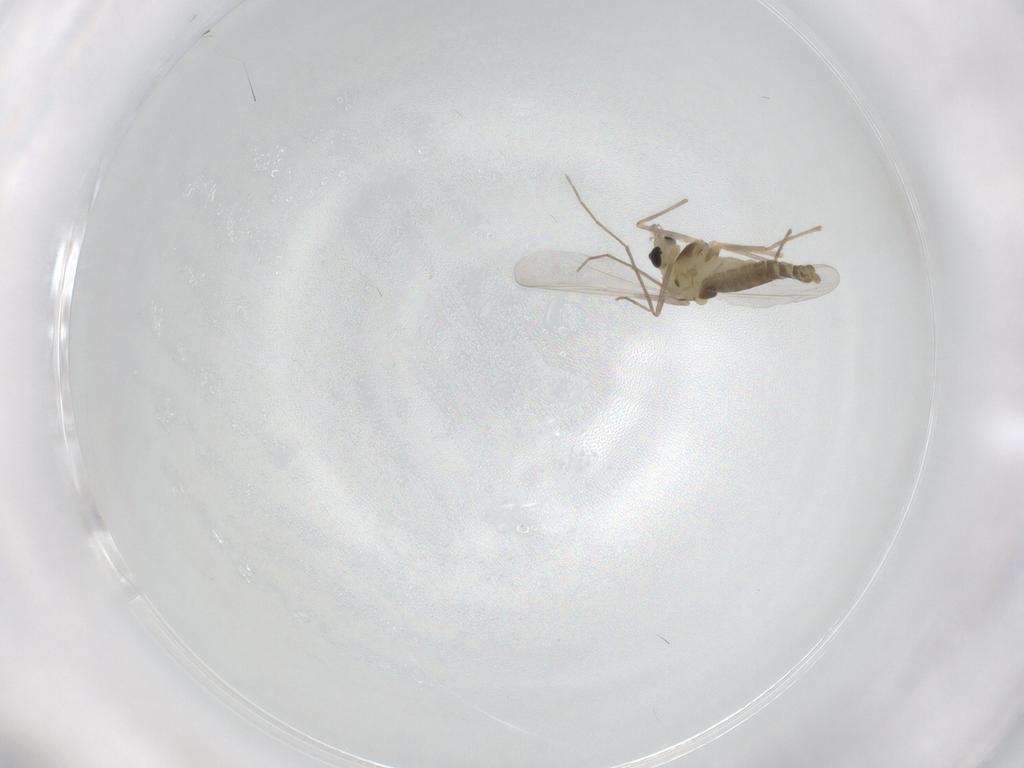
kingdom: Animalia
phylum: Arthropoda
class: Insecta
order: Diptera
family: Chironomidae
